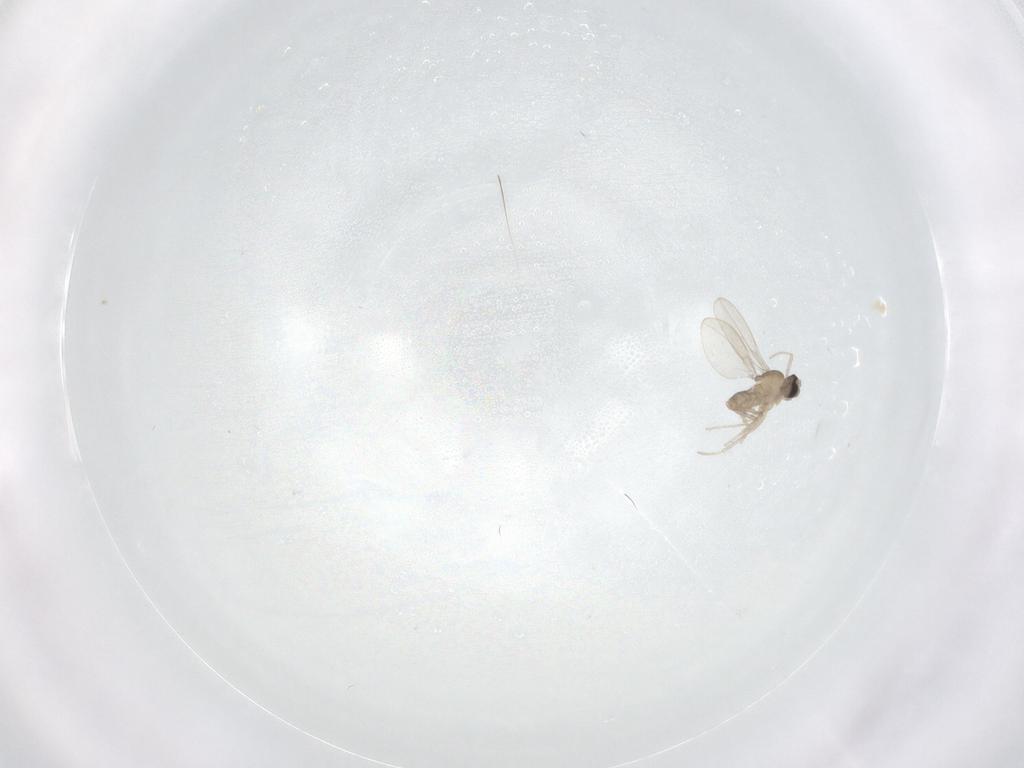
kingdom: Animalia
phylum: Arthropoda
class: Insecta
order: Diptera
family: Cecidomyiidae
